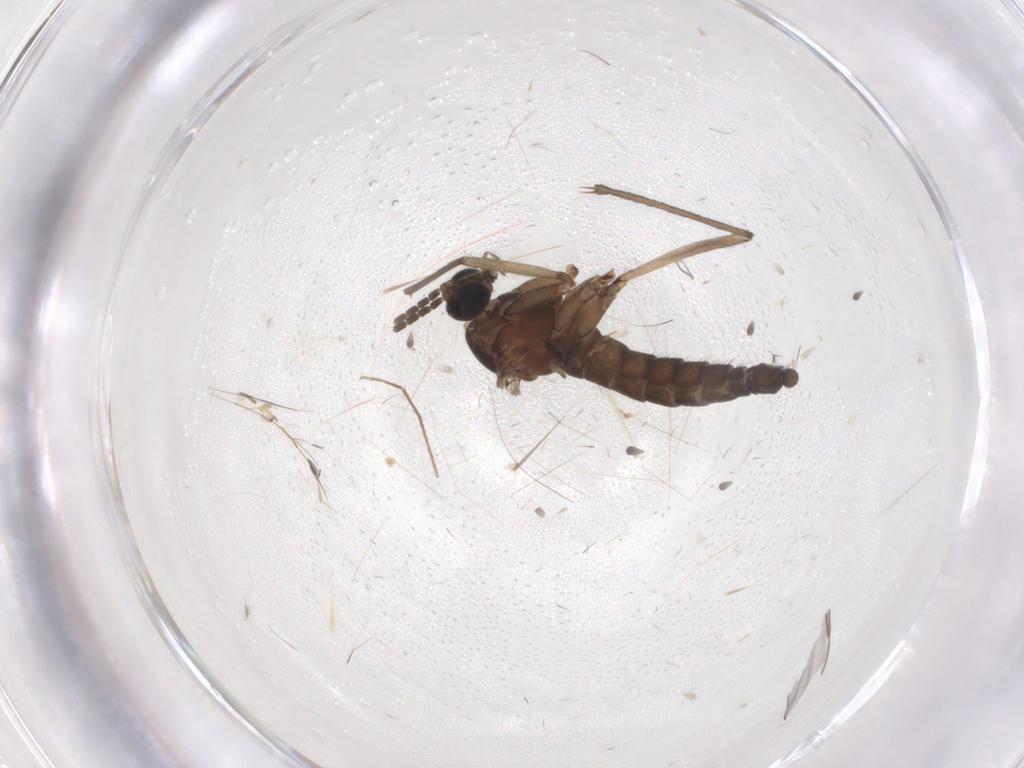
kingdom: Animalia
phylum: Arthropoda
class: Insecta
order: Diptera
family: Sciaridae
